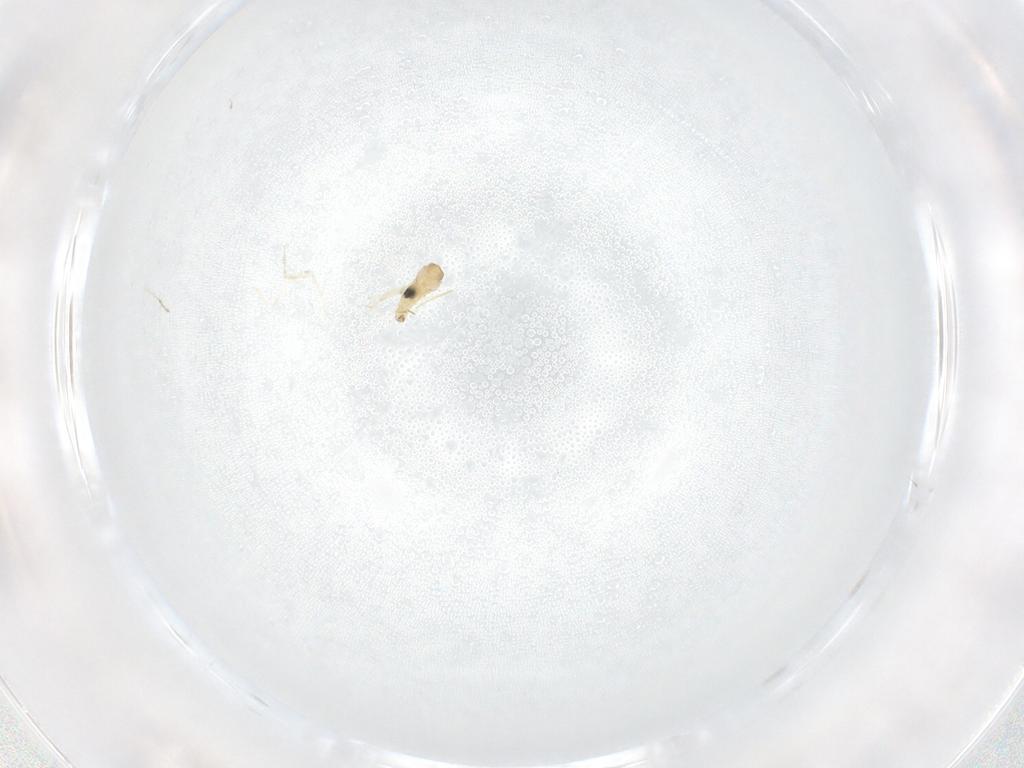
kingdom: Animalia
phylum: Arthropoda
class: Insecta
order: Diptera
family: Cecidomyiidae
